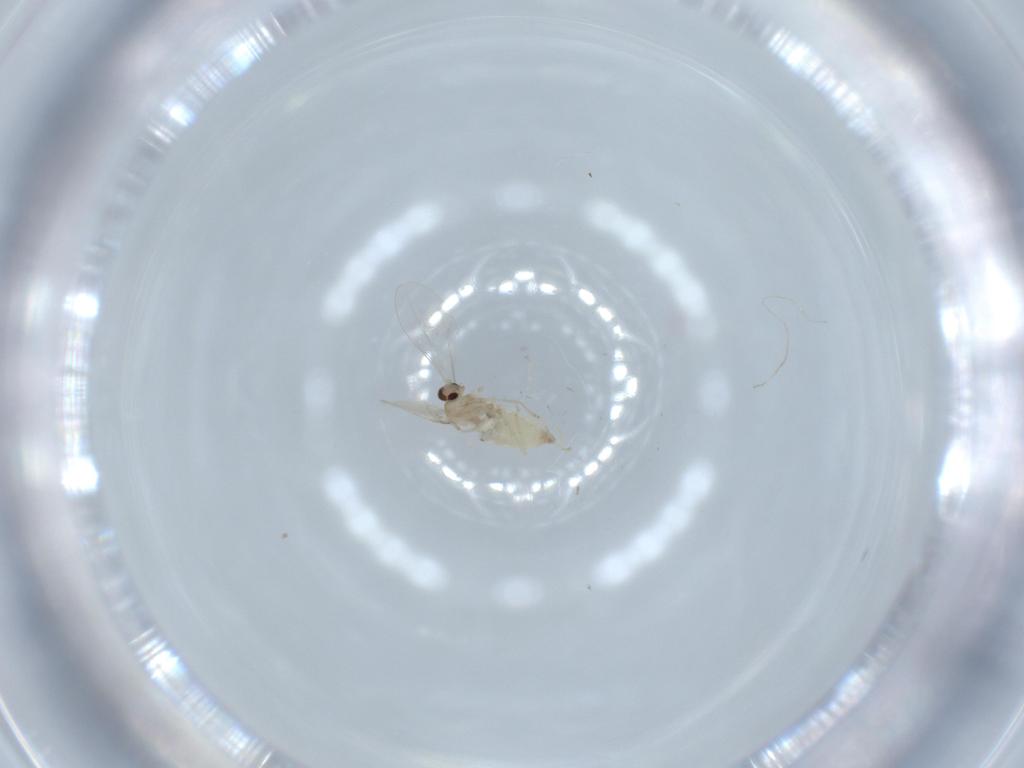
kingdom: Animalia
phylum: Arthropoda
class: Insecta
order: Diptera
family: Cecidomyiidae
